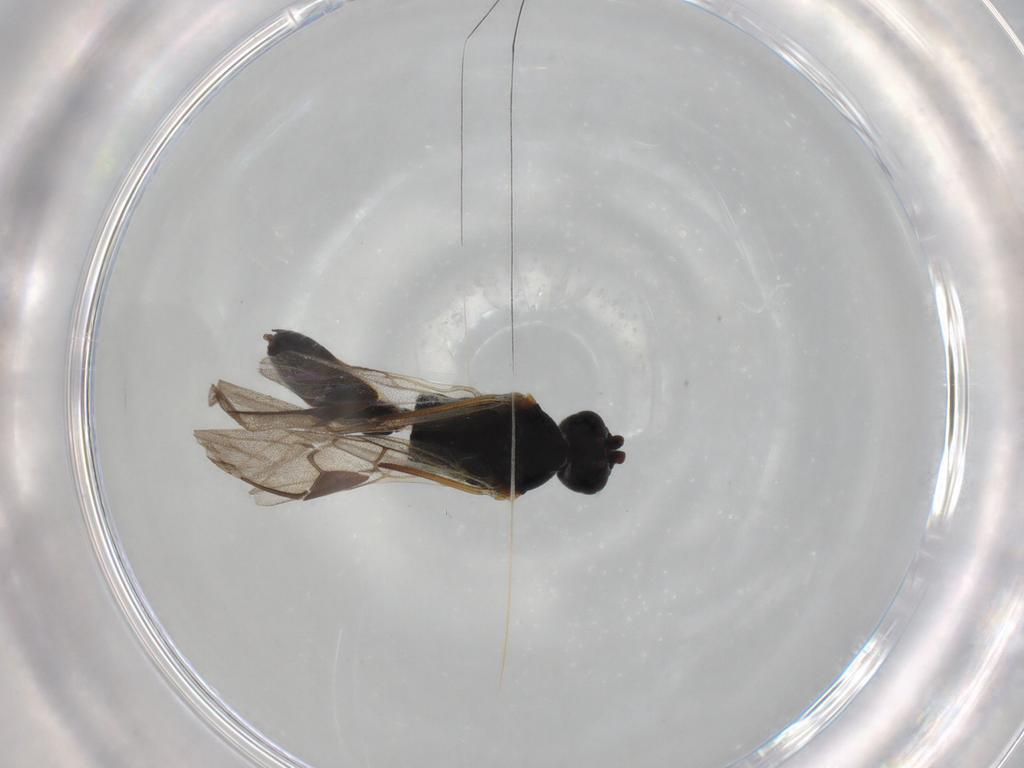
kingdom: Animalia
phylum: Arthropoda
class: Insecta
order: Hymenoptera
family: Braconidae
